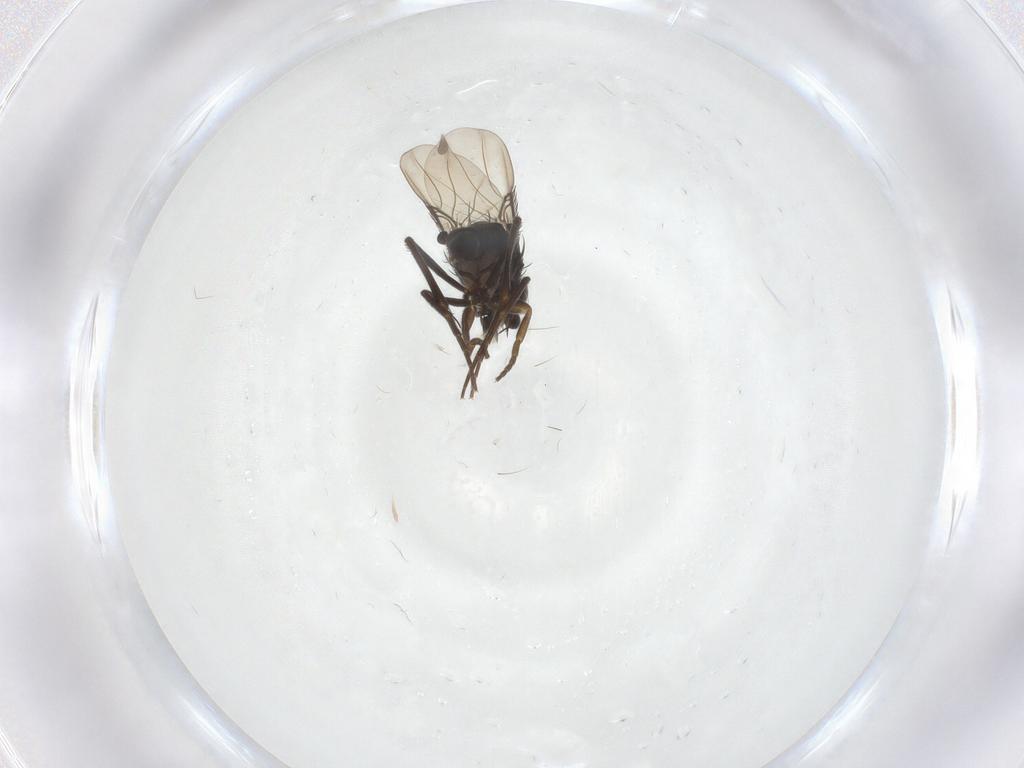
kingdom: Animalia
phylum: Arthropoda
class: Insecta
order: Diptera
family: Phoridae
